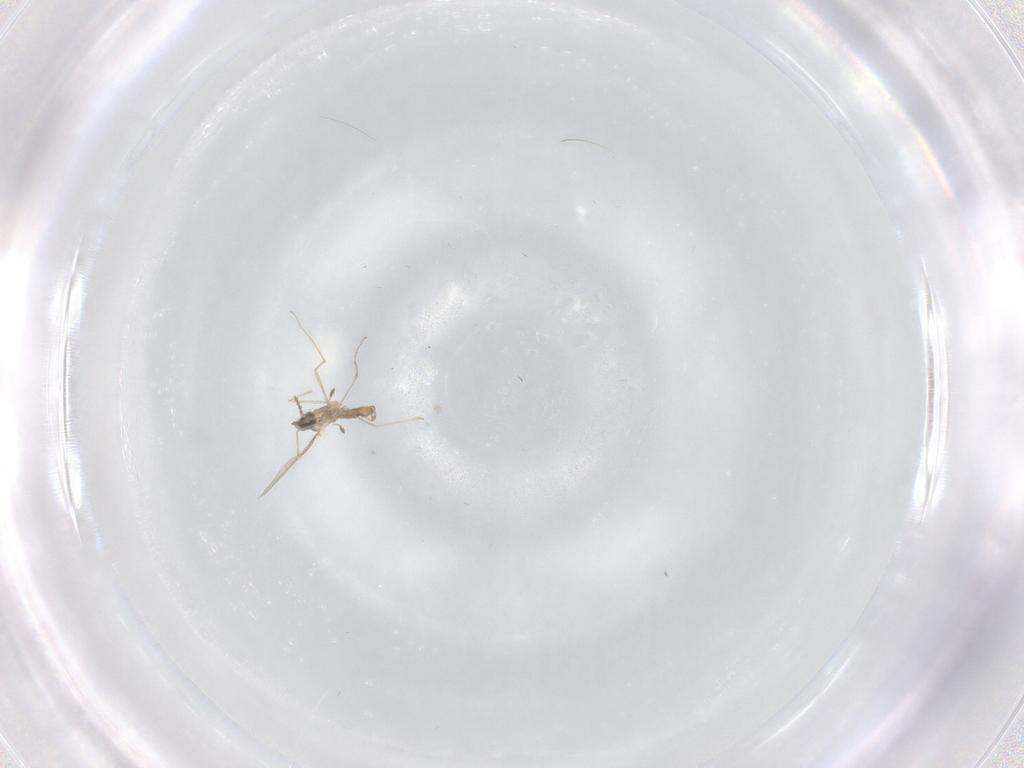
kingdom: Animalia
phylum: Arthropoda
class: Insecta
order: Diptera
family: Cecidomyiidae
